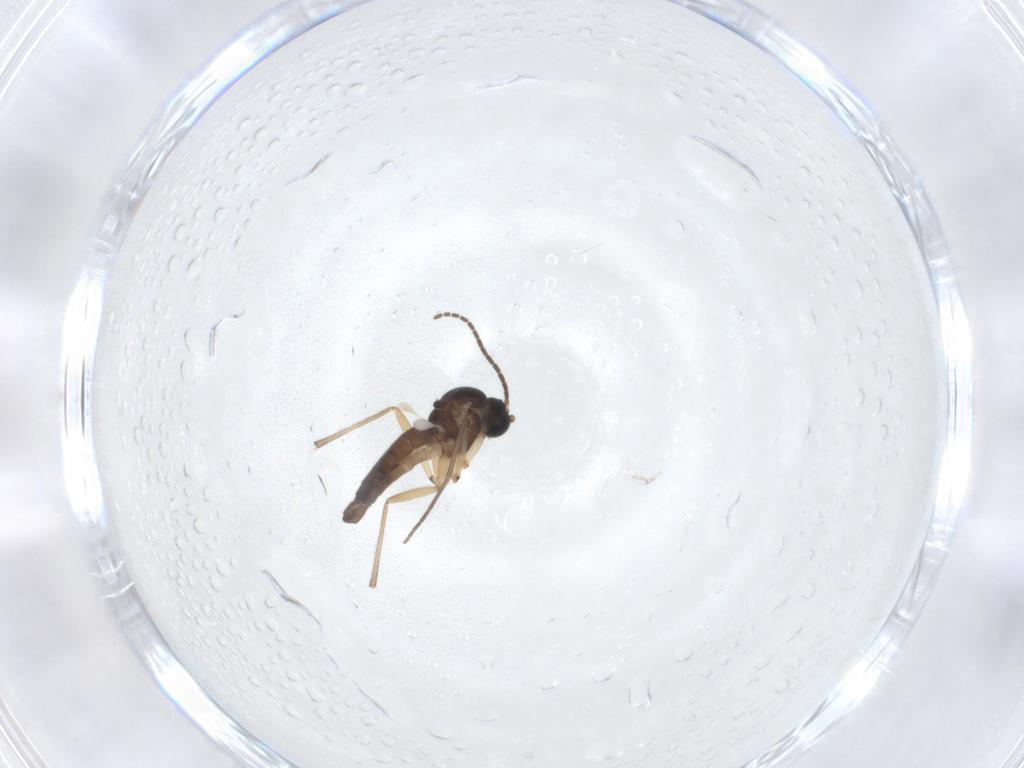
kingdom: Animalia
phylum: Arthropoda
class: Insecta
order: Diptera
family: Sciaridae
